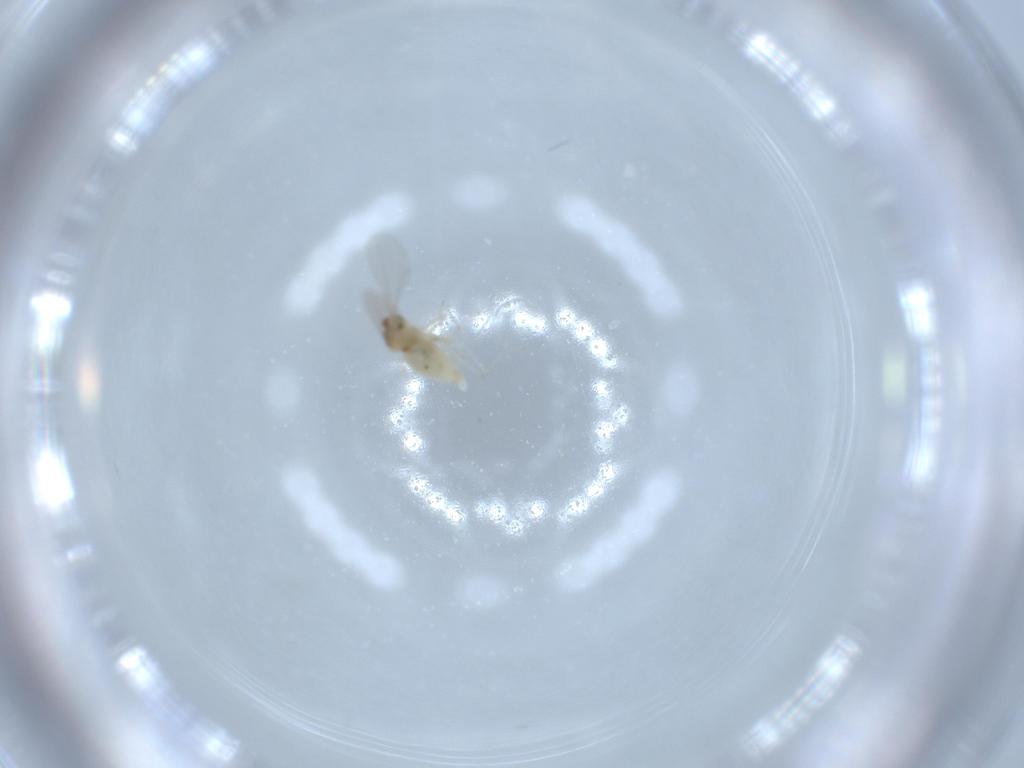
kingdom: Animalia
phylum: Arthropoda
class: Insecta
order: Diptera
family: Cecidomyiidae
